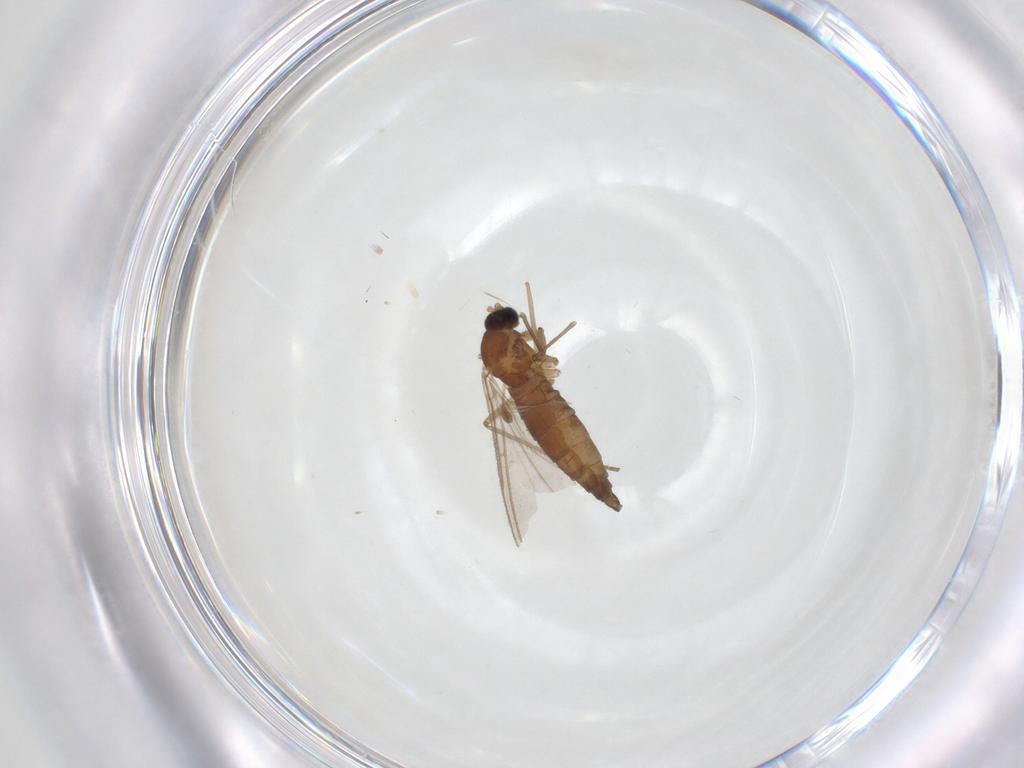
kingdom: Animalia
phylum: Arthropoda
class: Insecta
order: Diptera
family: Sciaridae
